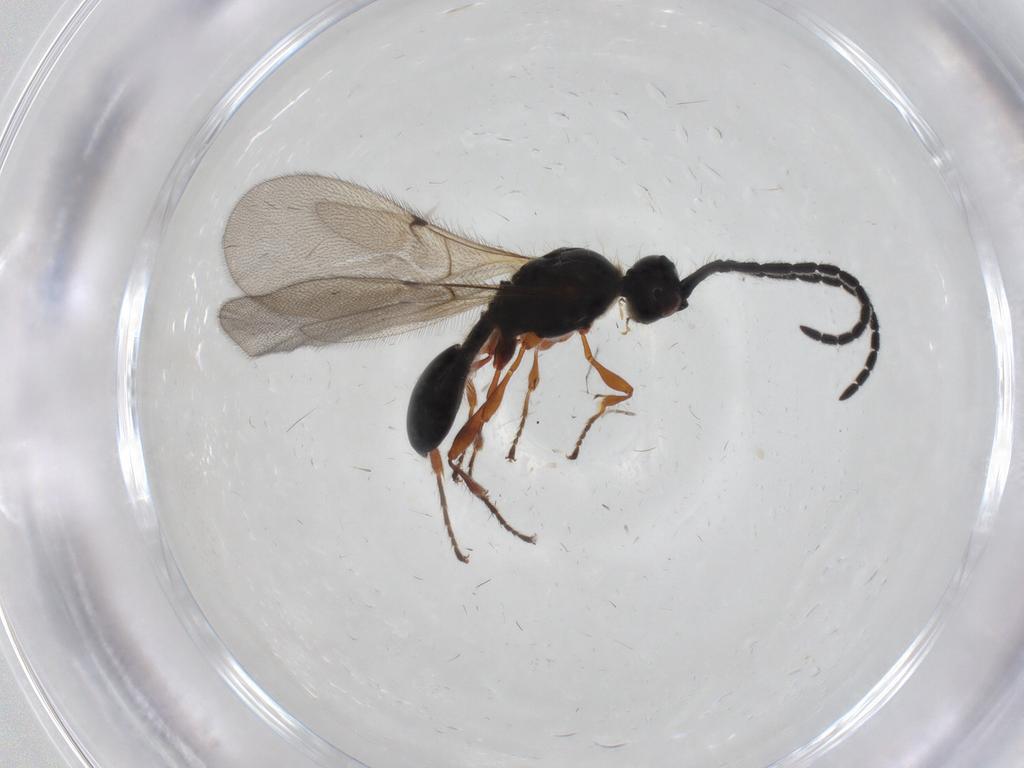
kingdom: Animalia
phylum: Arthropoda
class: Insecta
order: Hymenoptera
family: Diapriidae
